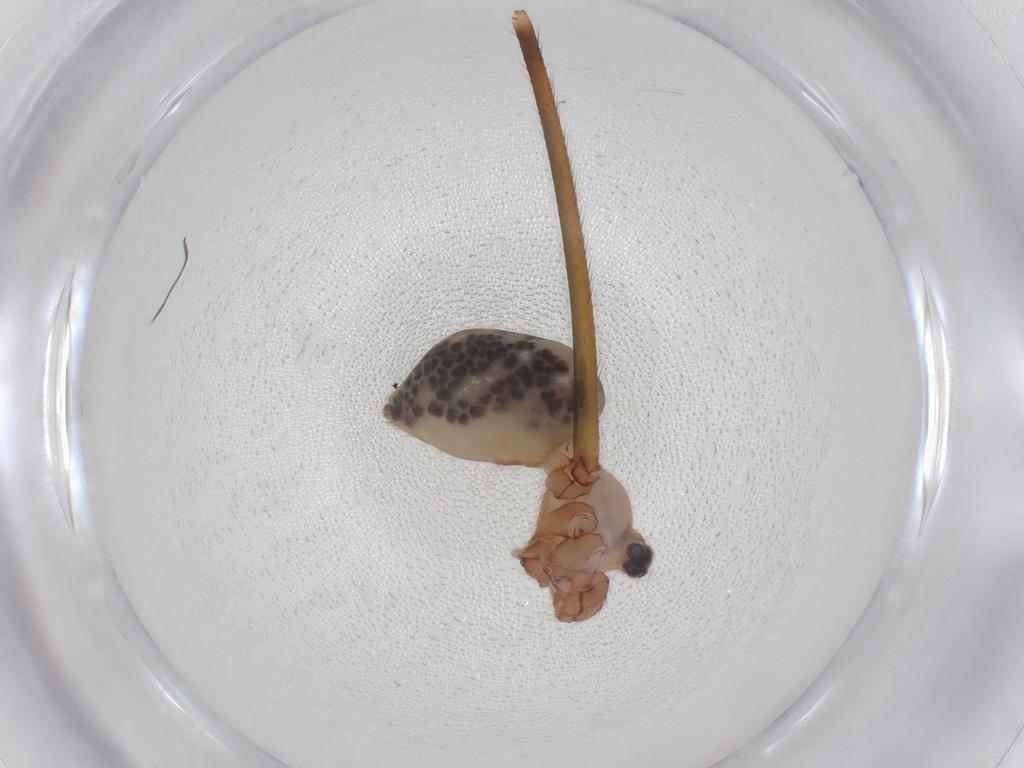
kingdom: Animalia
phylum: Arthropoda
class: Arachnida
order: Araneae
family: Pholcidae
